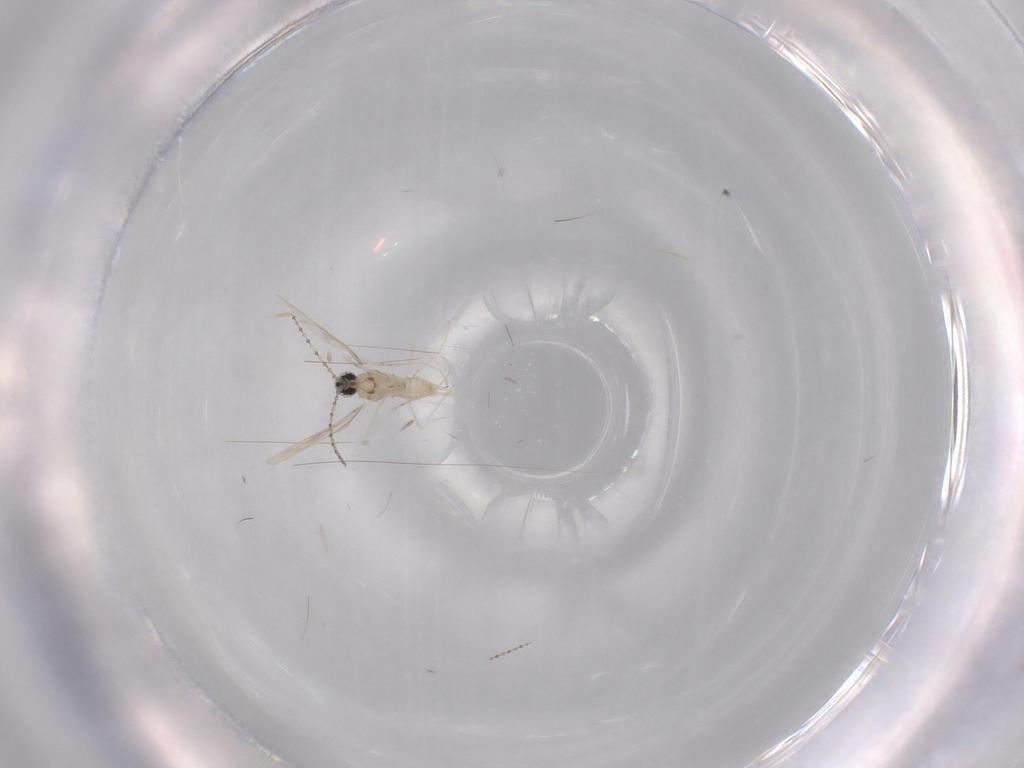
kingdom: Animalia
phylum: Arthropoda
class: Insecta
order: Diptera
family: Cecidomyiidae
